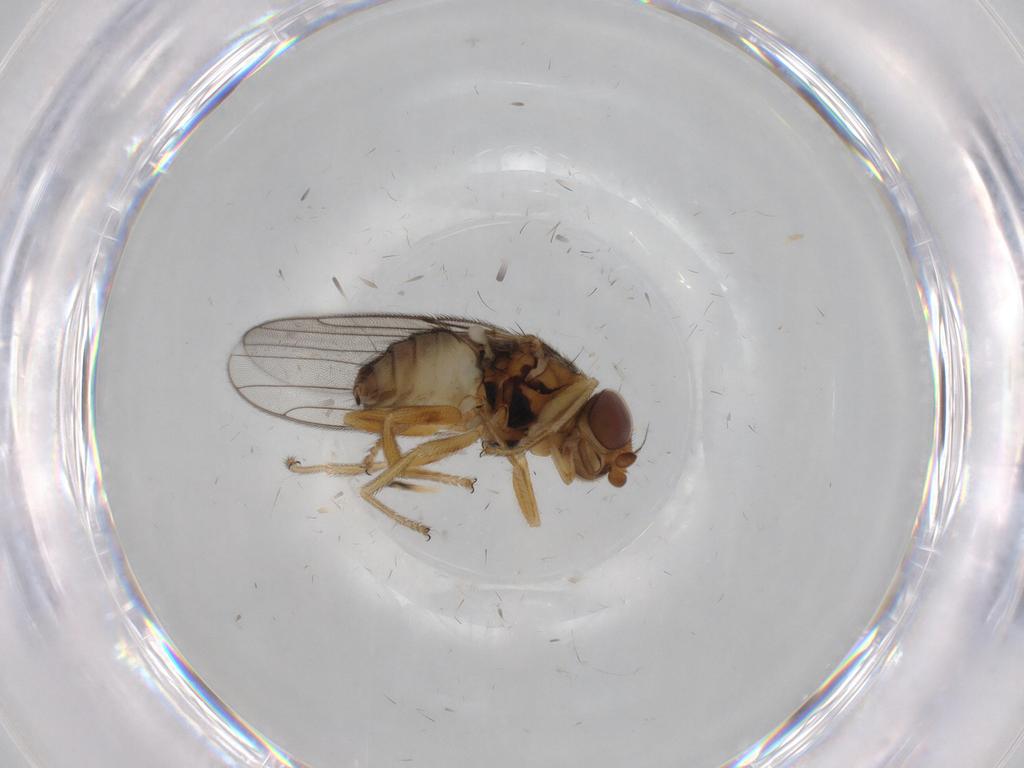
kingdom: Animalia
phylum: Arthropoda
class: Insecta
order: Diptera
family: Chloropidae
